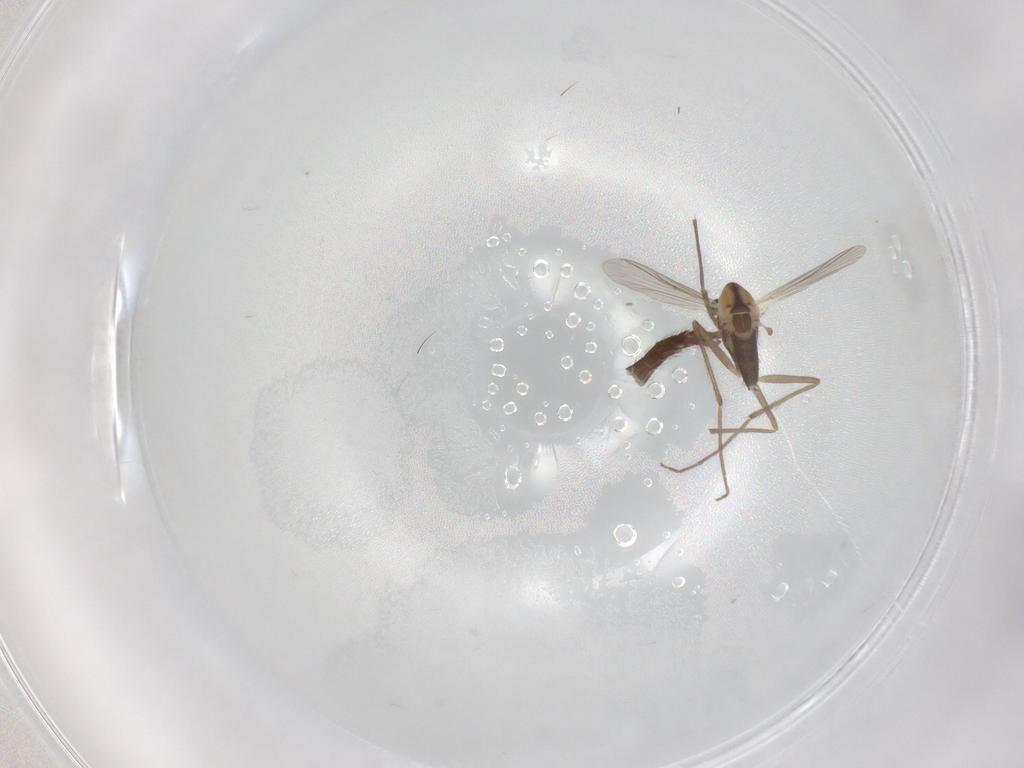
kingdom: Animalia
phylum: Arthropoda
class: Insecta
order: Diptera
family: Chironomidae
